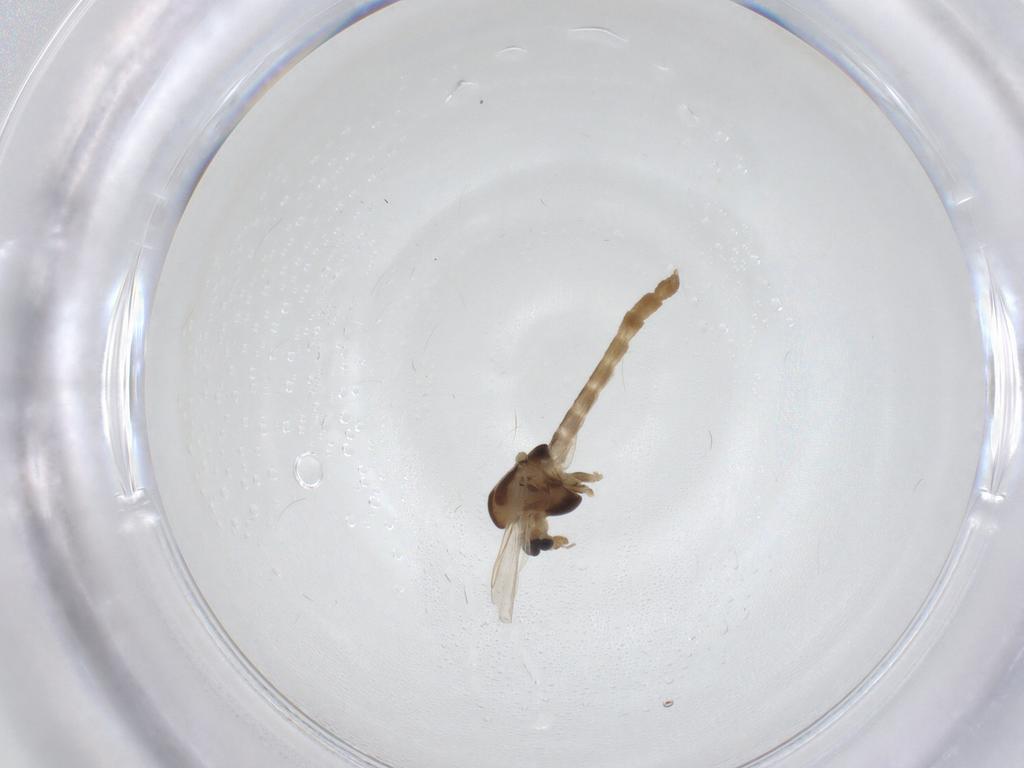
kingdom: Animalia
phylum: Arthropoda
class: Insecta
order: Diptera
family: Chironomidae
